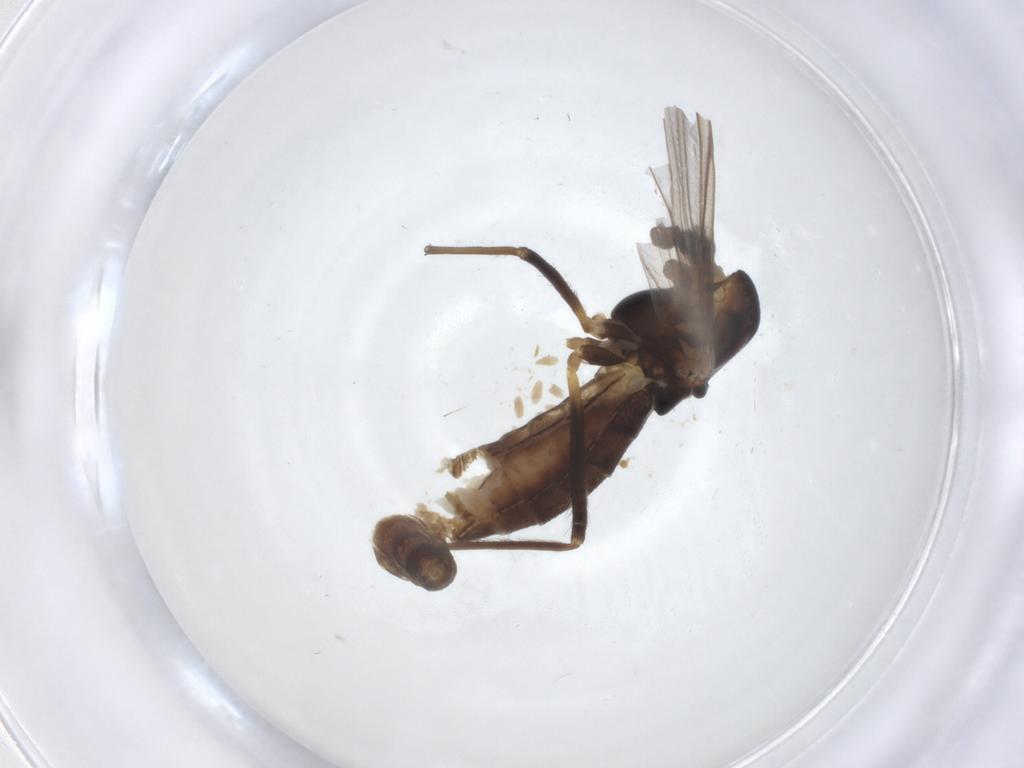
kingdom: Animalia
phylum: Arthropoda
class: Insecta
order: Diptera
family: Chironomidae
